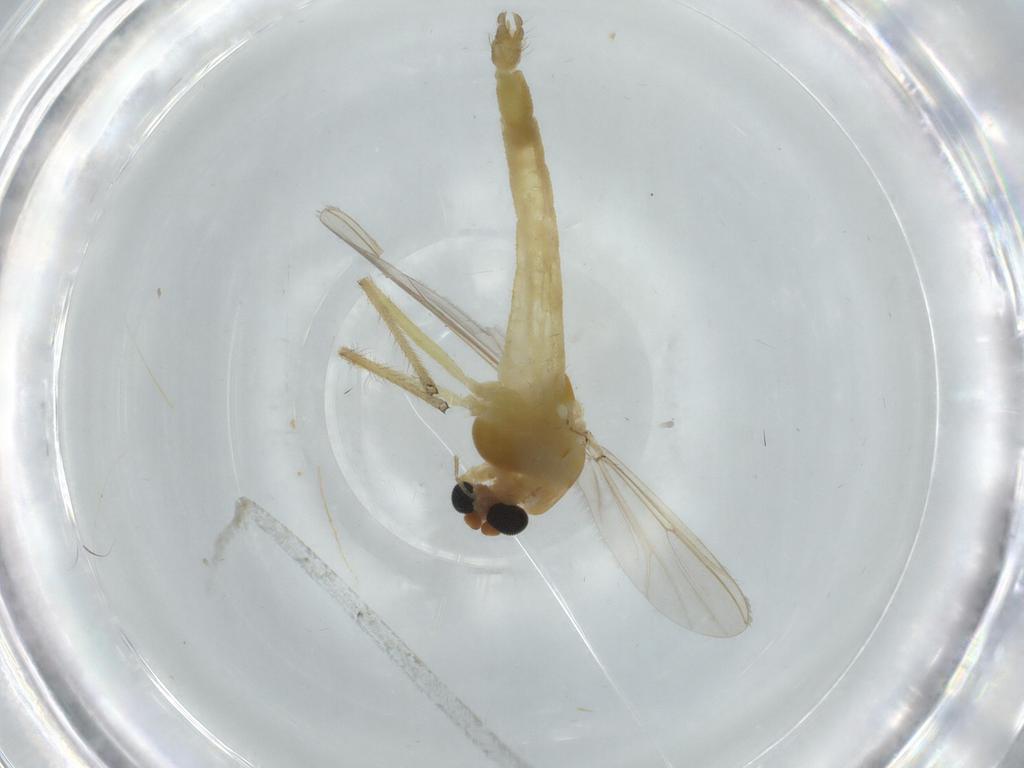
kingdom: Animalia
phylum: Arthropoda
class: Insecta
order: Diptera
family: Chironomidae
